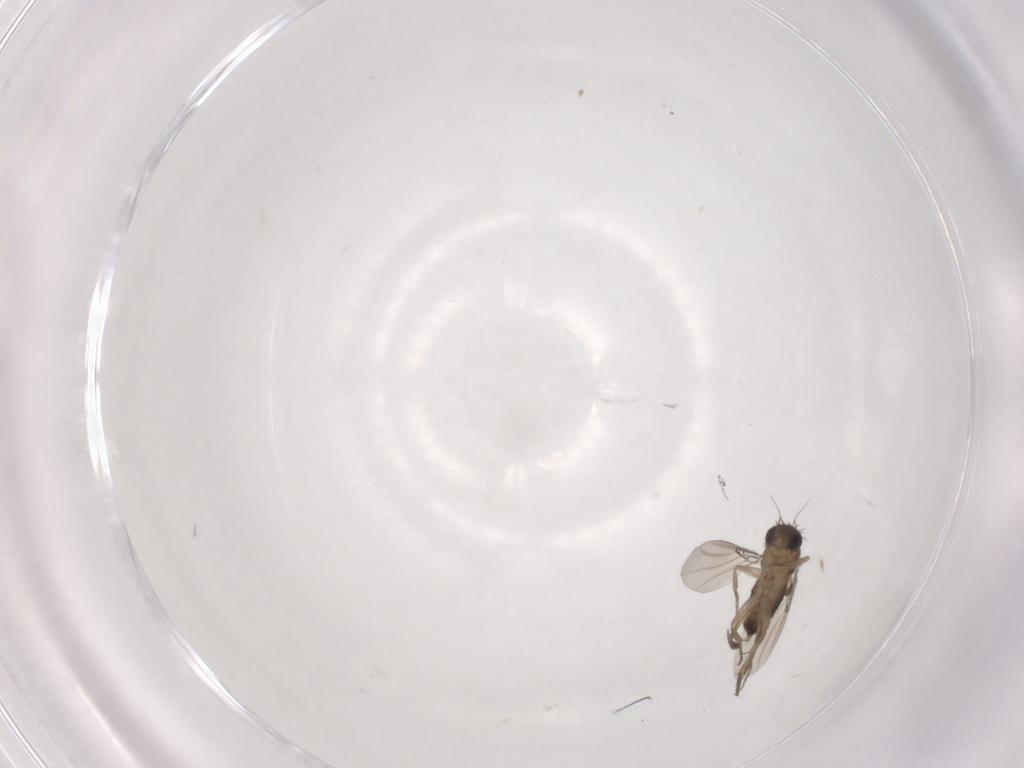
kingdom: Animalia
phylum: Arthropoda
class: Insecta
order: Diptera
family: Phoridae
